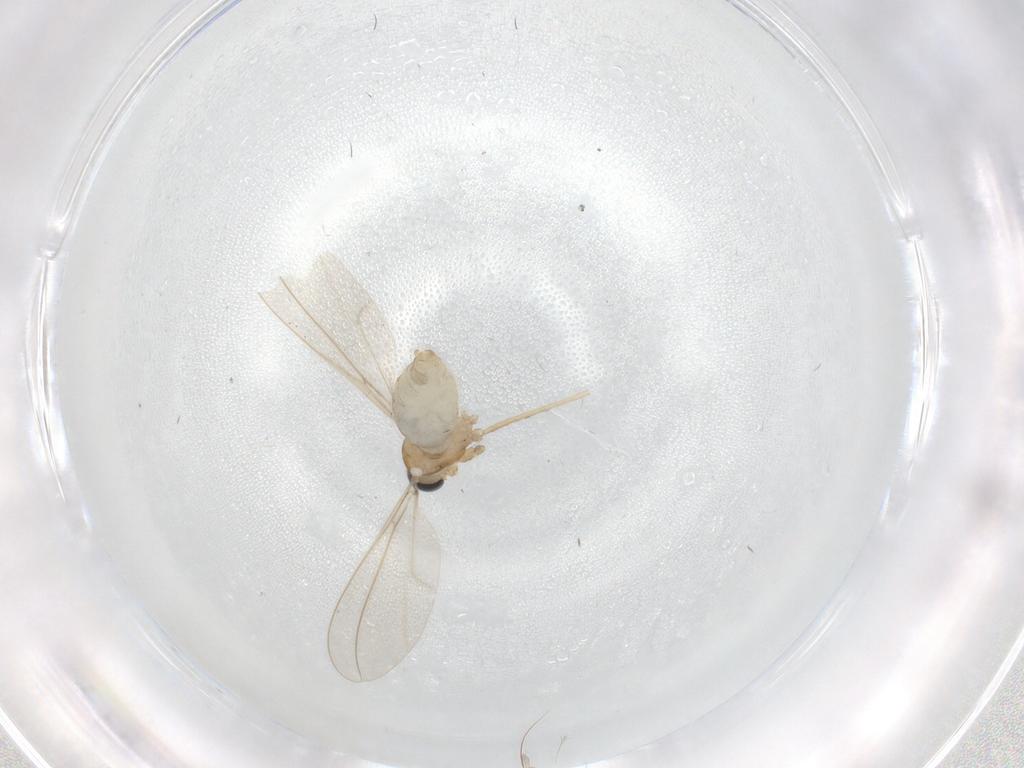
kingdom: Animalia
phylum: Arthropoda
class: Insecta
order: Diptera
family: Cecidomyiidae
